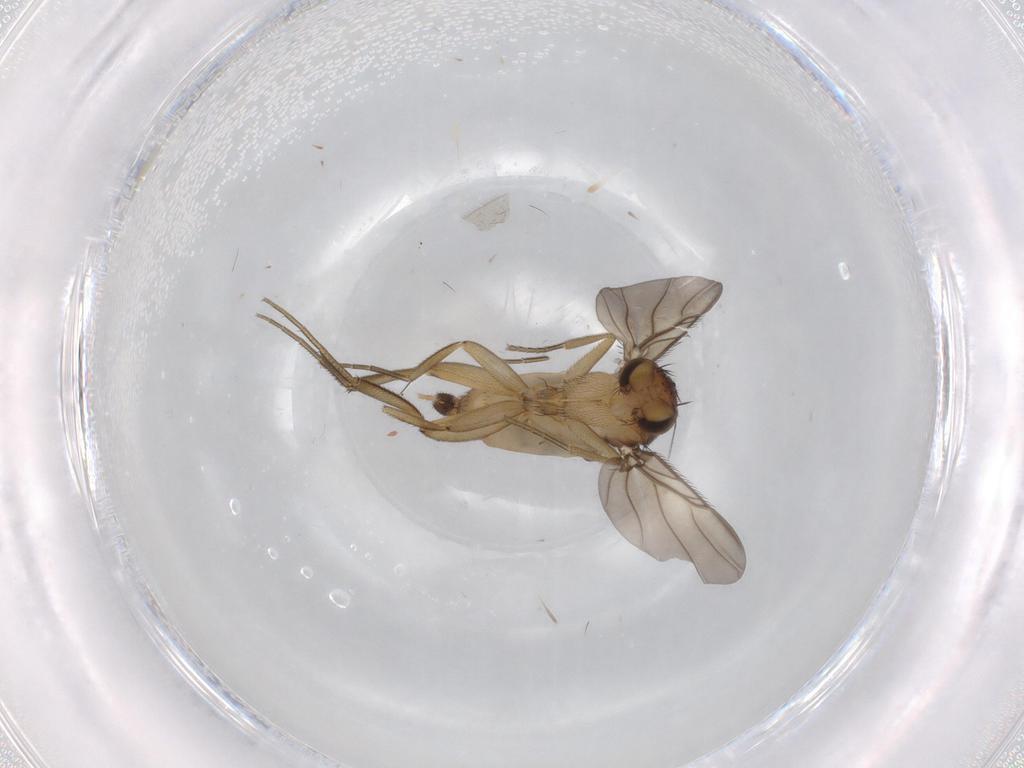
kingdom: Animalia
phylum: Arthropoda
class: Insecta
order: Diptera
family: Phoridae
